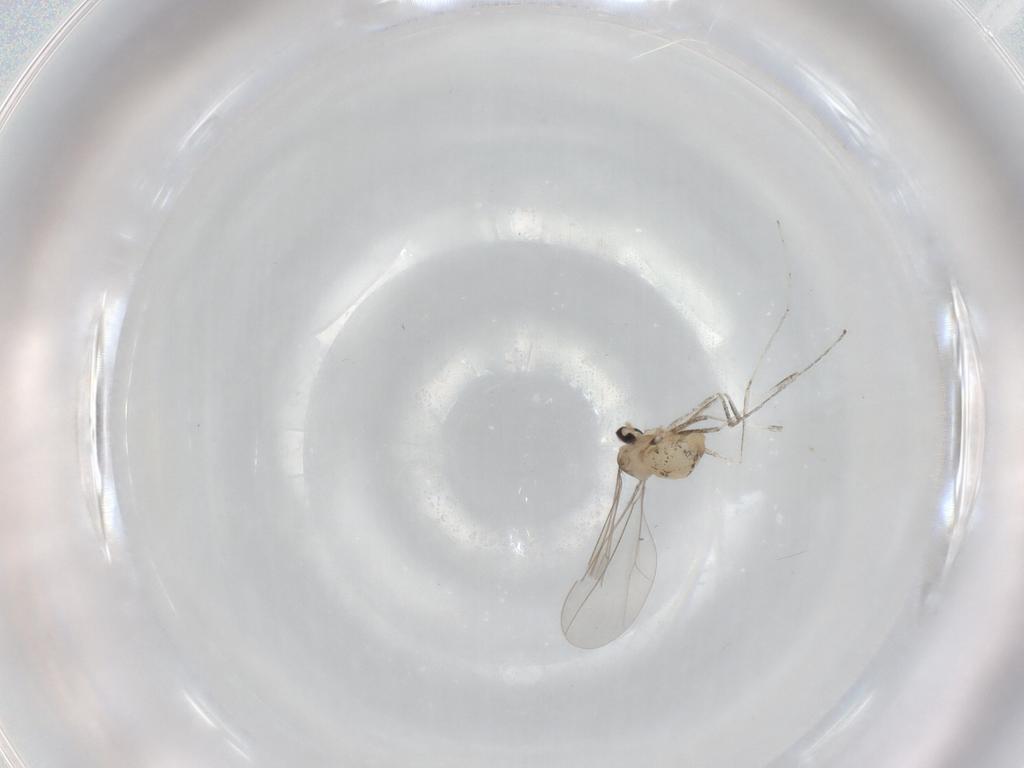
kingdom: Animalia
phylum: Arthropoda
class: Insecta
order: Diptera
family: Cecidomyiidae
